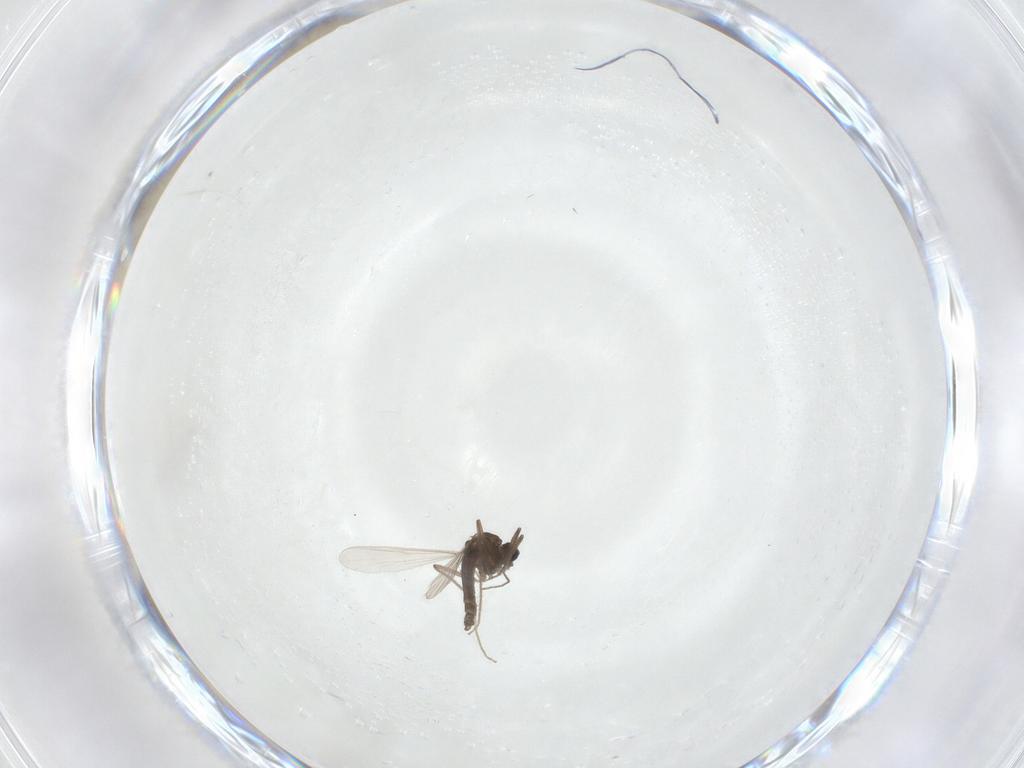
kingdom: Animalia
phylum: Arthropoda
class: Insecta
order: Diptera
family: Chironomidae
